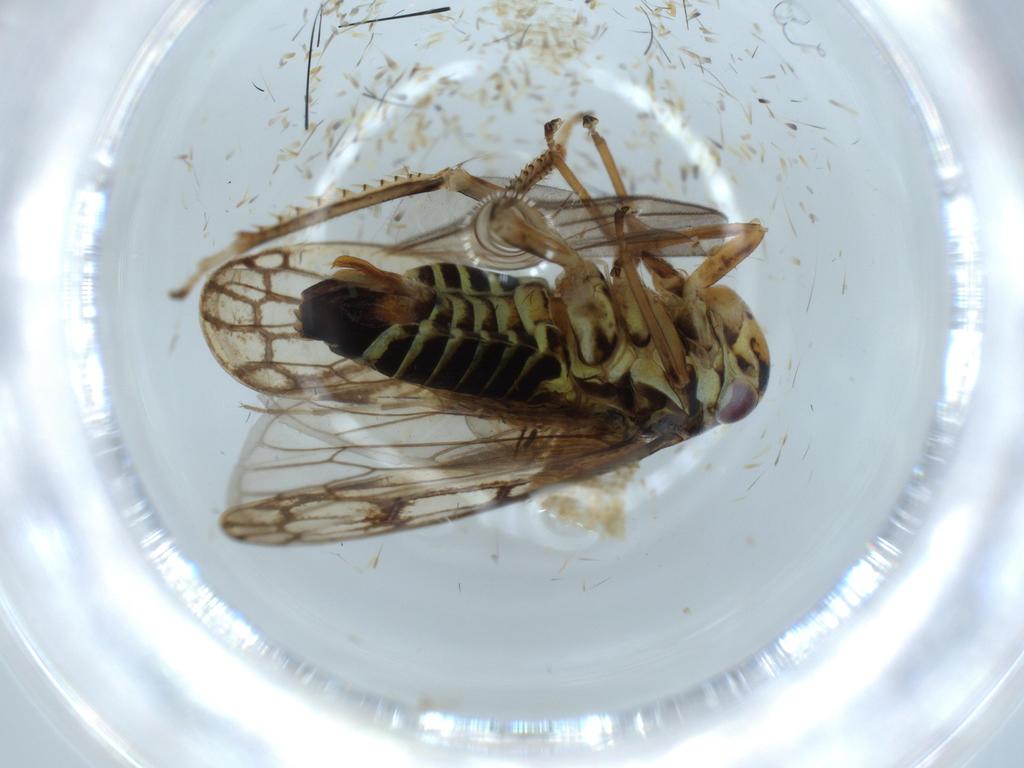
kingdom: Animalia
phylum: Arthropoda
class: Insecta
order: Hemiptera
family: Cicadellidae
